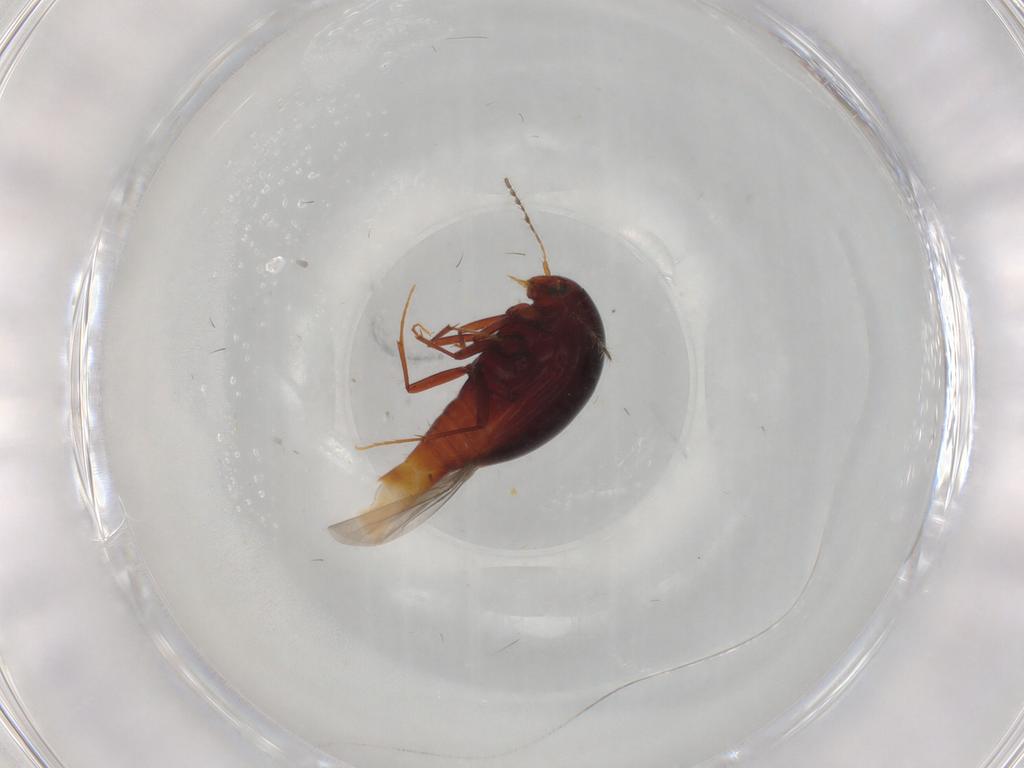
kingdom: Animalia
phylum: Arthropoda
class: Insecta
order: Coleoptera
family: Staphylinidae
